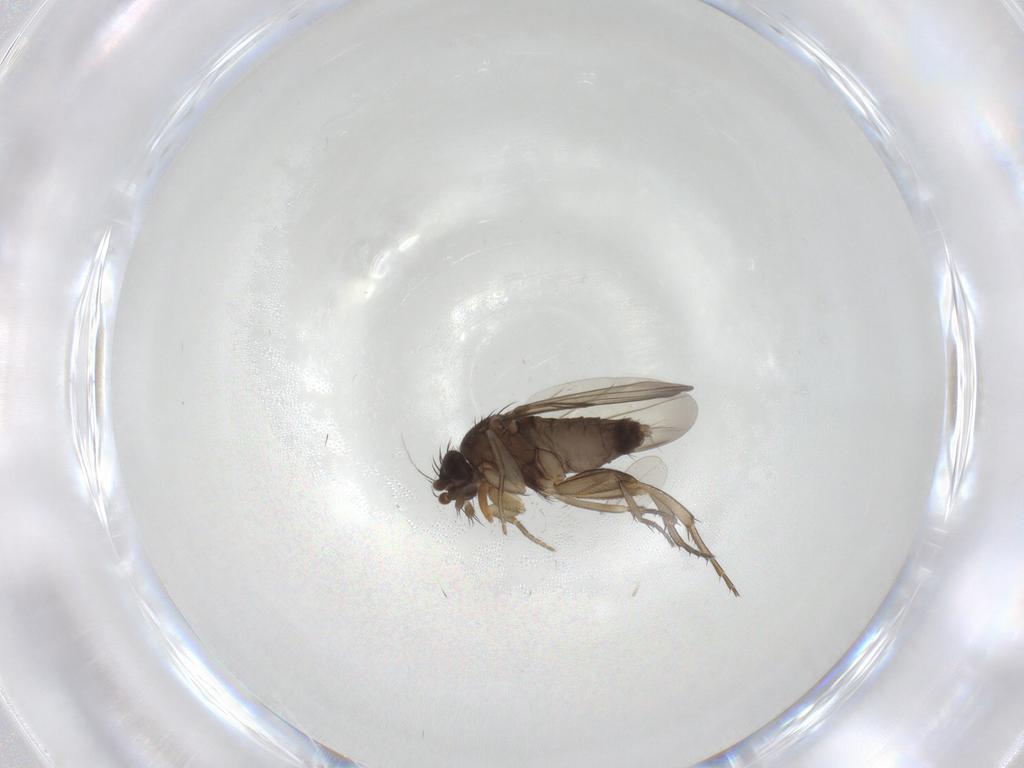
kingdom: Animalia
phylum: Arthropoda
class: Insecta
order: Diptera
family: Phoridae
